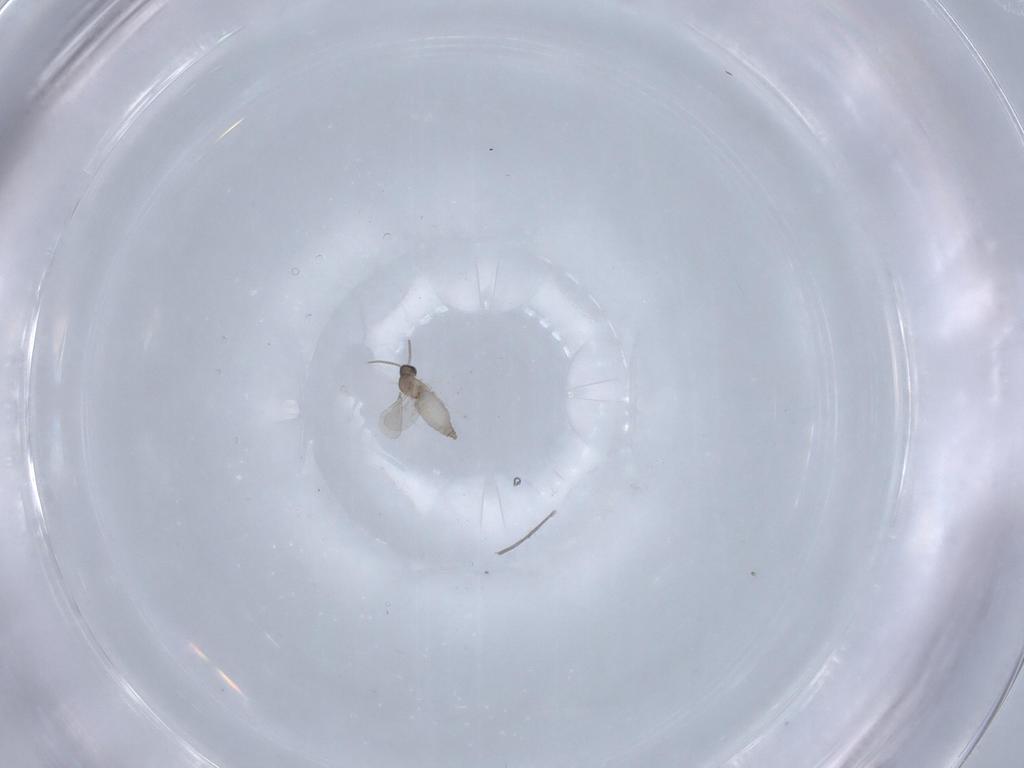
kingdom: Animalia
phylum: Arthropoda
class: Insecta
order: Diptera
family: Cecidomyiidae
